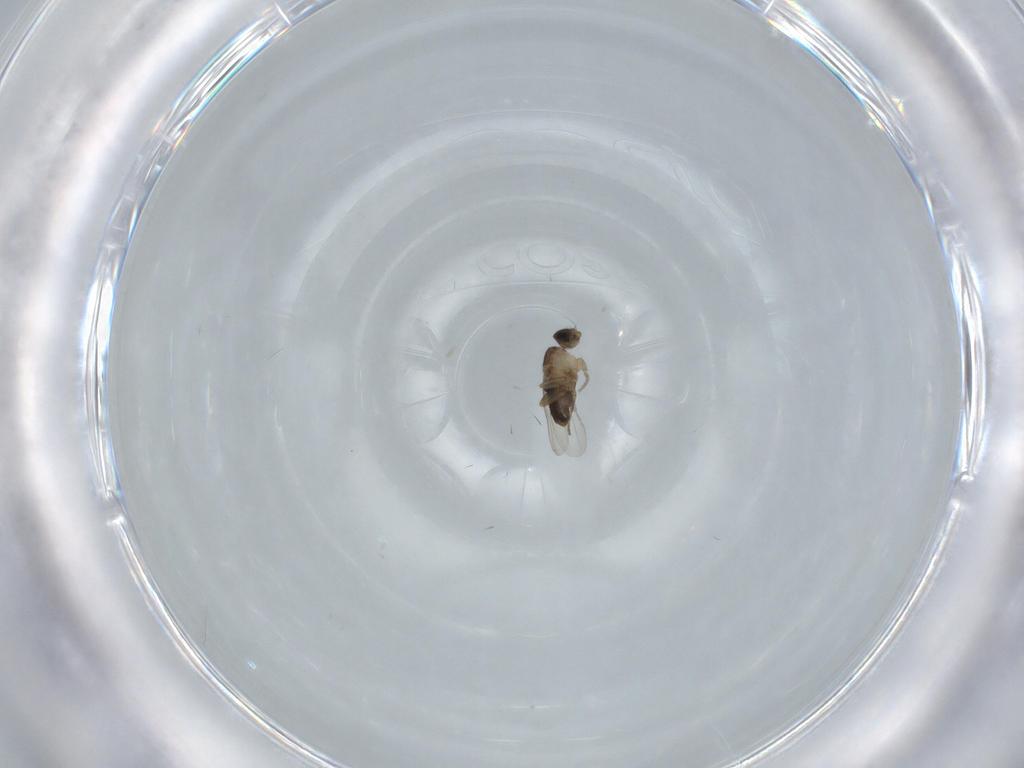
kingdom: Animalia
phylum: Arthropoda
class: Insecta
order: Diptera
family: Phoridae
